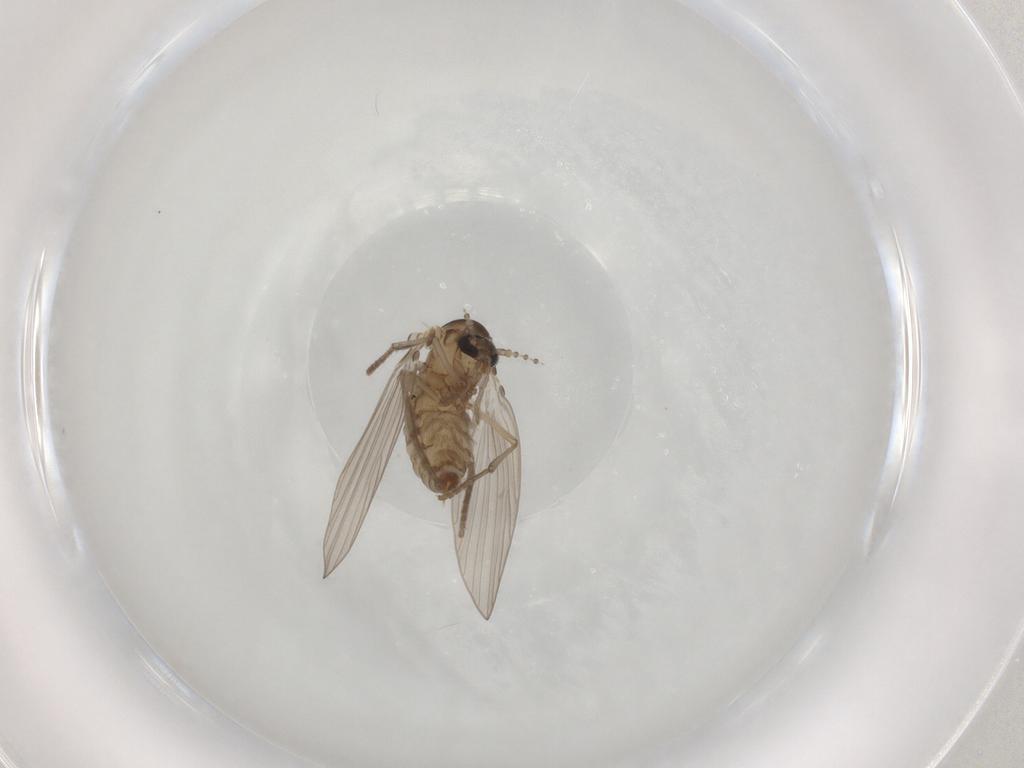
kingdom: Animalia
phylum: Arthropoda
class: Insecta
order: Diptera
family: Psychodidae
